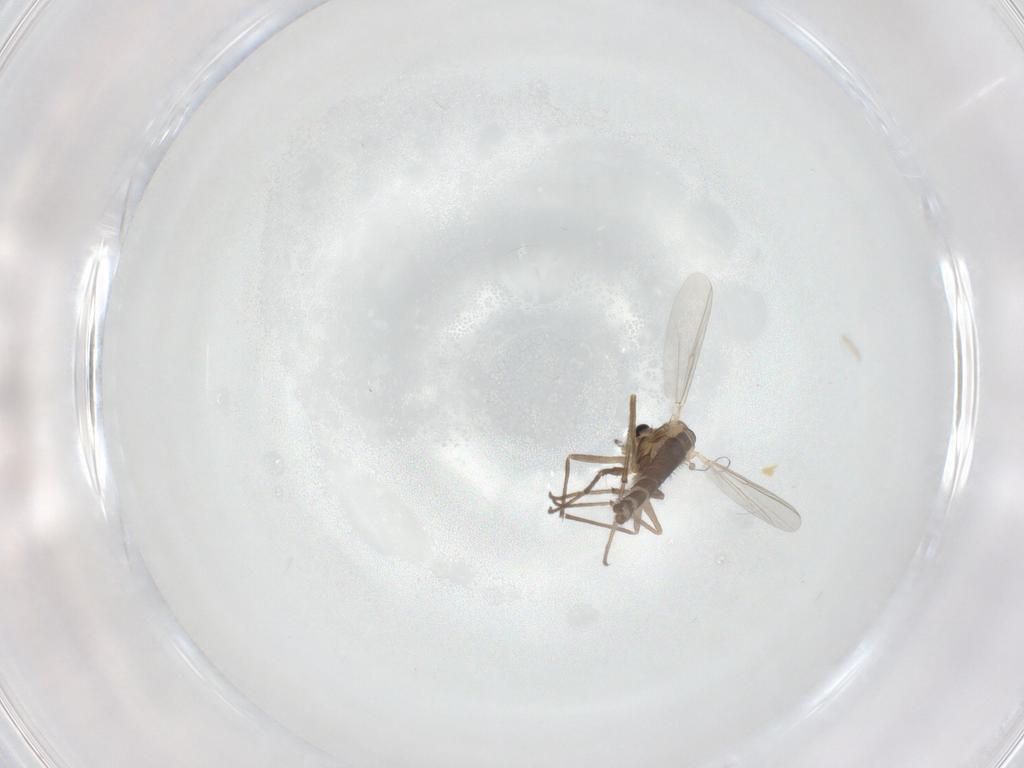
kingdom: Animalia
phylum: Arthropoda
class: Insecta
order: Diptera
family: Chironomidae
